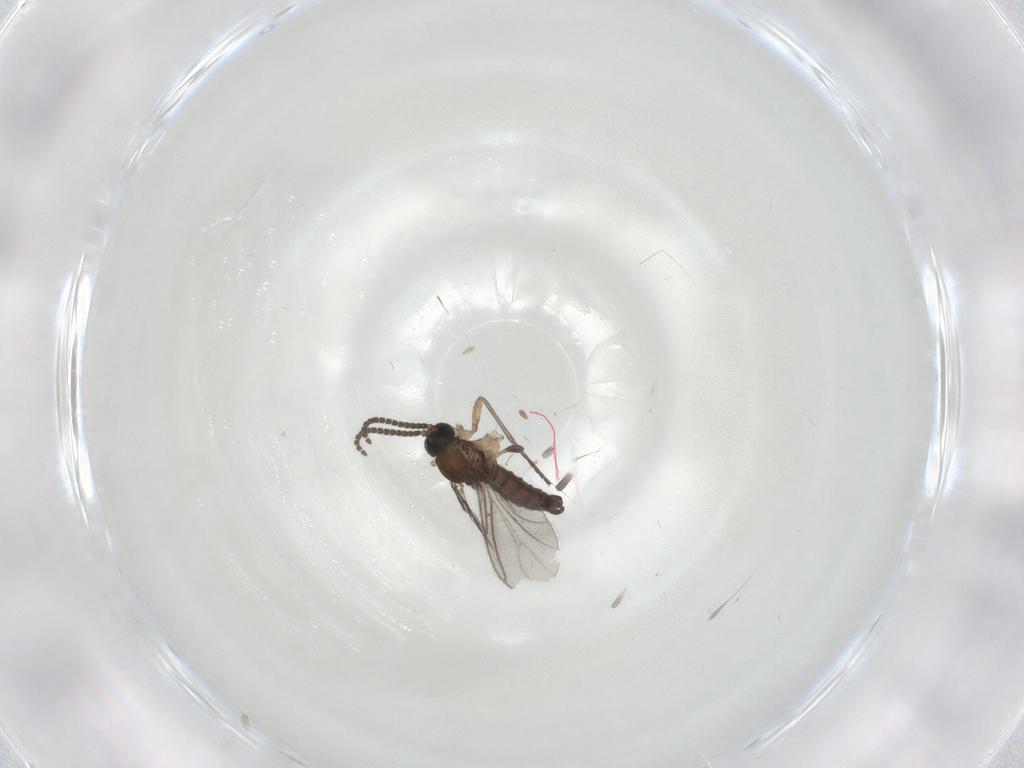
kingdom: Animalia
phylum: Arthropoda
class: Insecta
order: Diptera
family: Sciaridae
